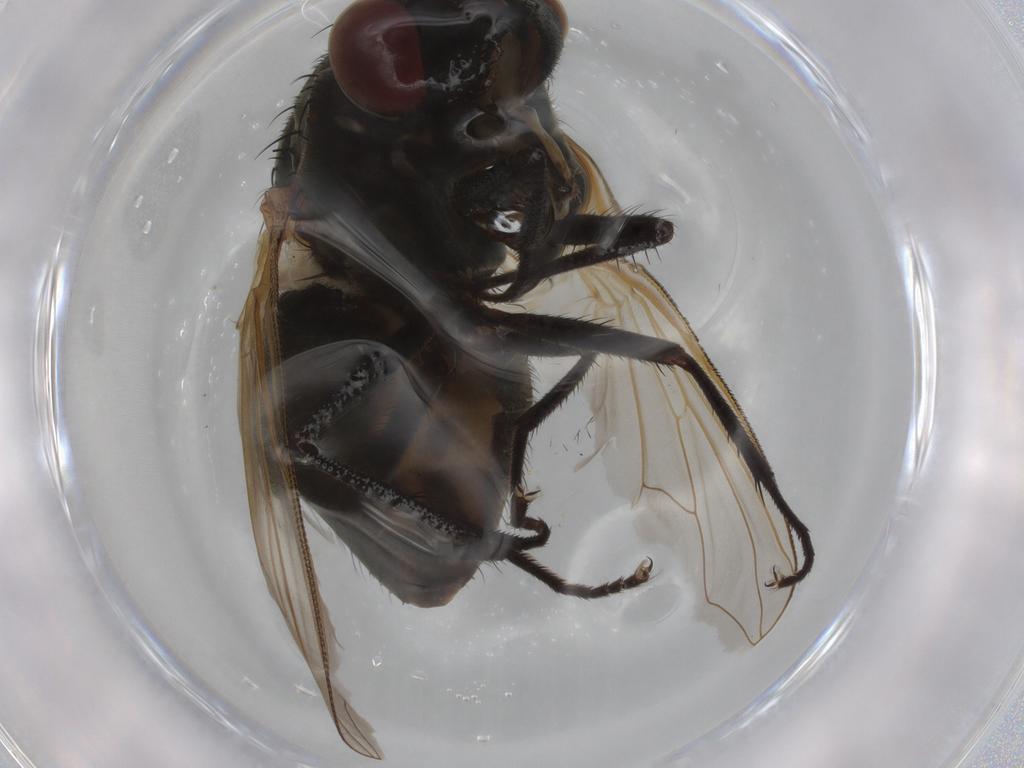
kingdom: Animalia
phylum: Arthropoda
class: Insecta
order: Diptera
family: Muscidae
